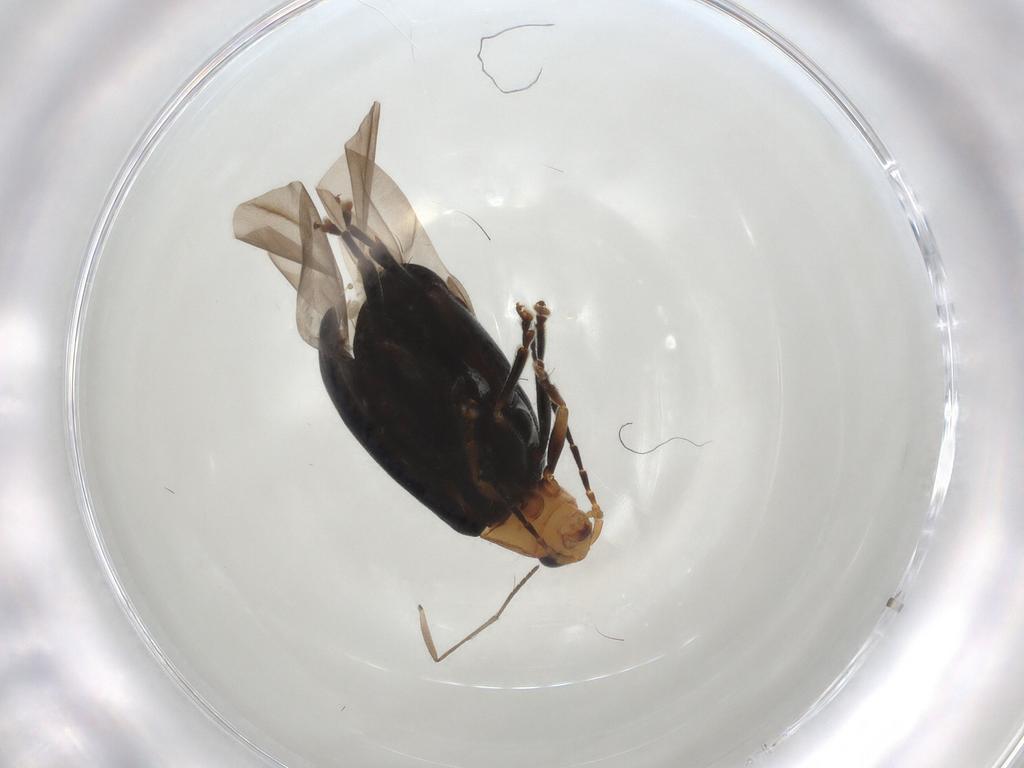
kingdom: Animalia
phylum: Arthropoda
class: Insecta
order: Coleoptera
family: Chrysomelidae
